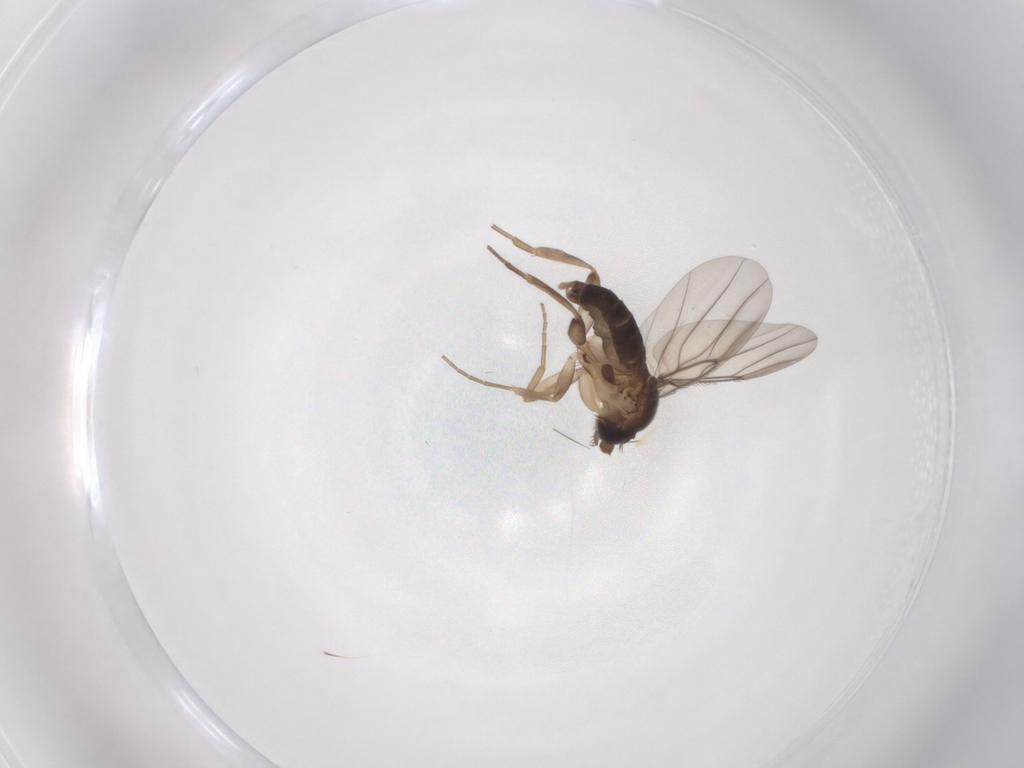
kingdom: Animalia
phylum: Arthropoda
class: Insecta
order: Diptera
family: Phoridae
